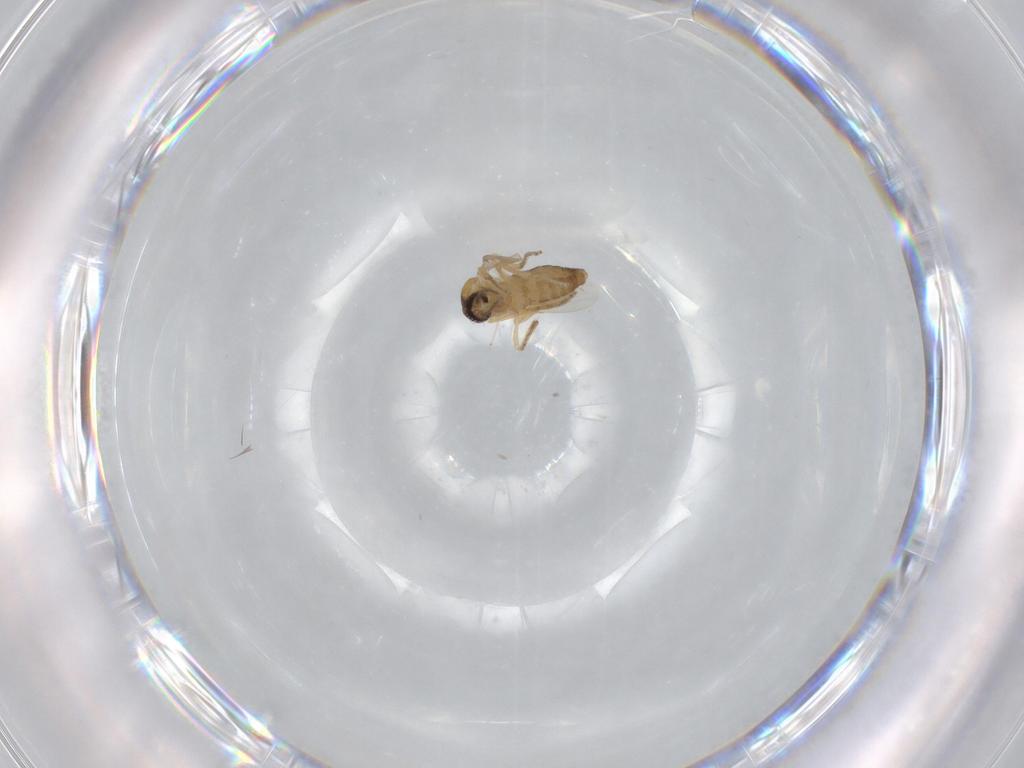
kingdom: Animalia
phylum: Arthropoda
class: Insecta
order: Diptera
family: Ceratopogonidae
